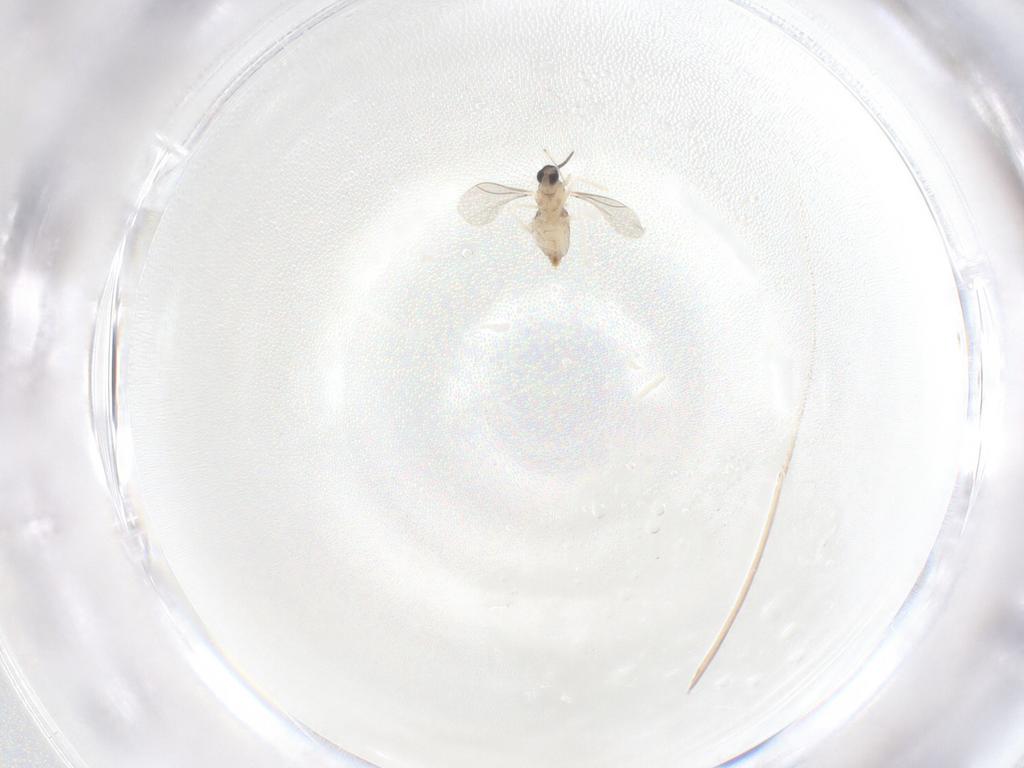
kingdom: Animalia
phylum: Arthropoda
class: Insecta
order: Diptera
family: Cecidomyiidae
